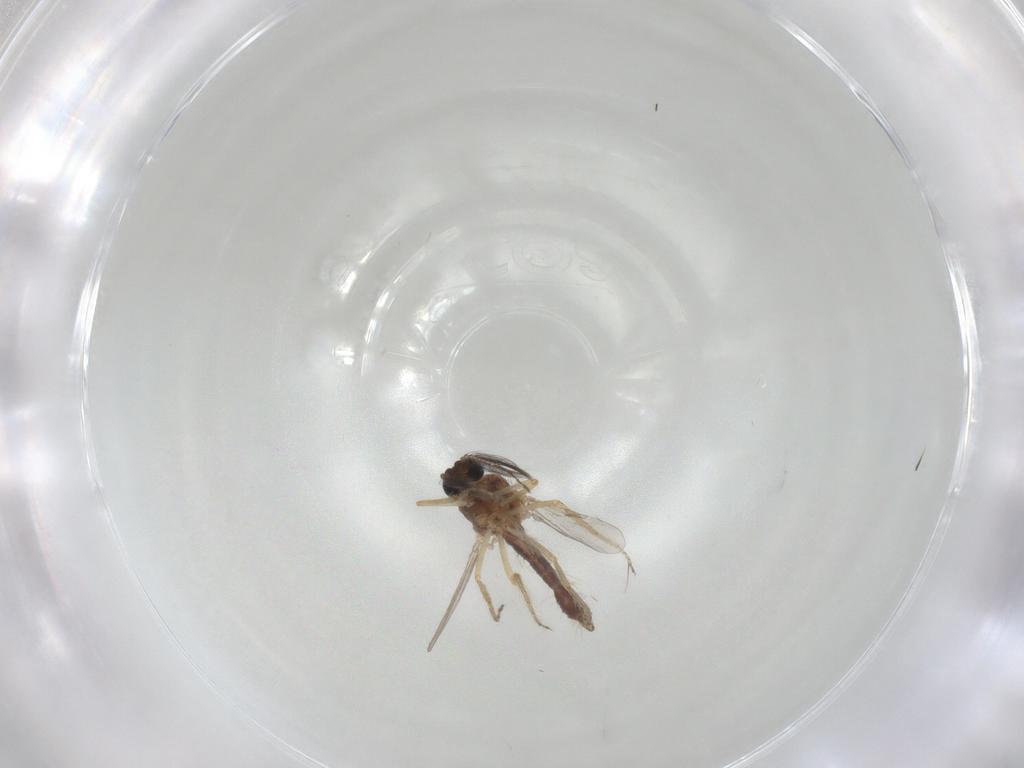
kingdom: Animalia
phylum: Arthropoda
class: Insecta
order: Diptera
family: Ceratopogonidae
